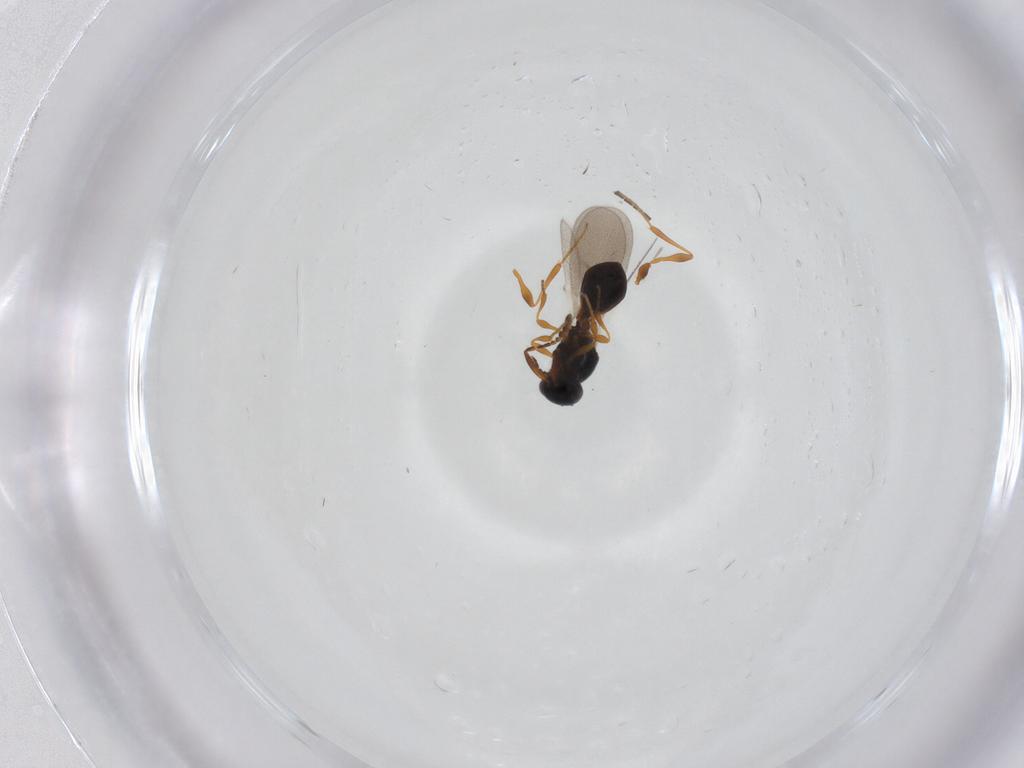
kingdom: Animalia
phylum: Arthropoda
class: Insecta
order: Hymenoptera
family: Platygastridae
